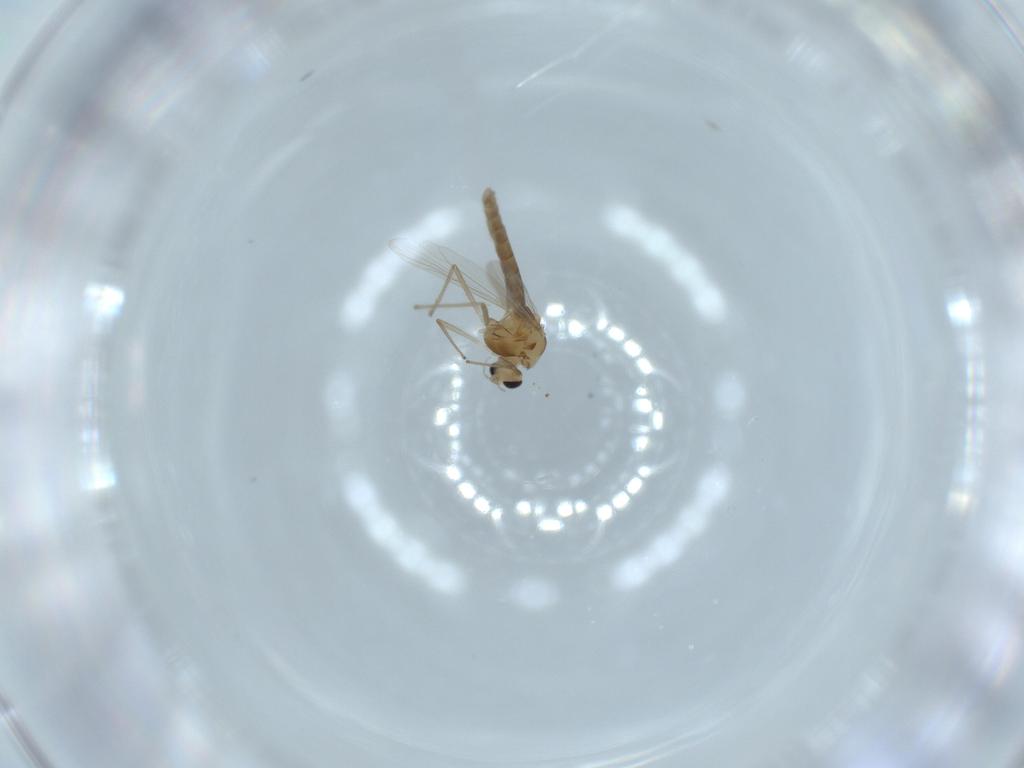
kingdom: Animalia
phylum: Arthropoda
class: Insecta
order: Diptera
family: Chironomidae
